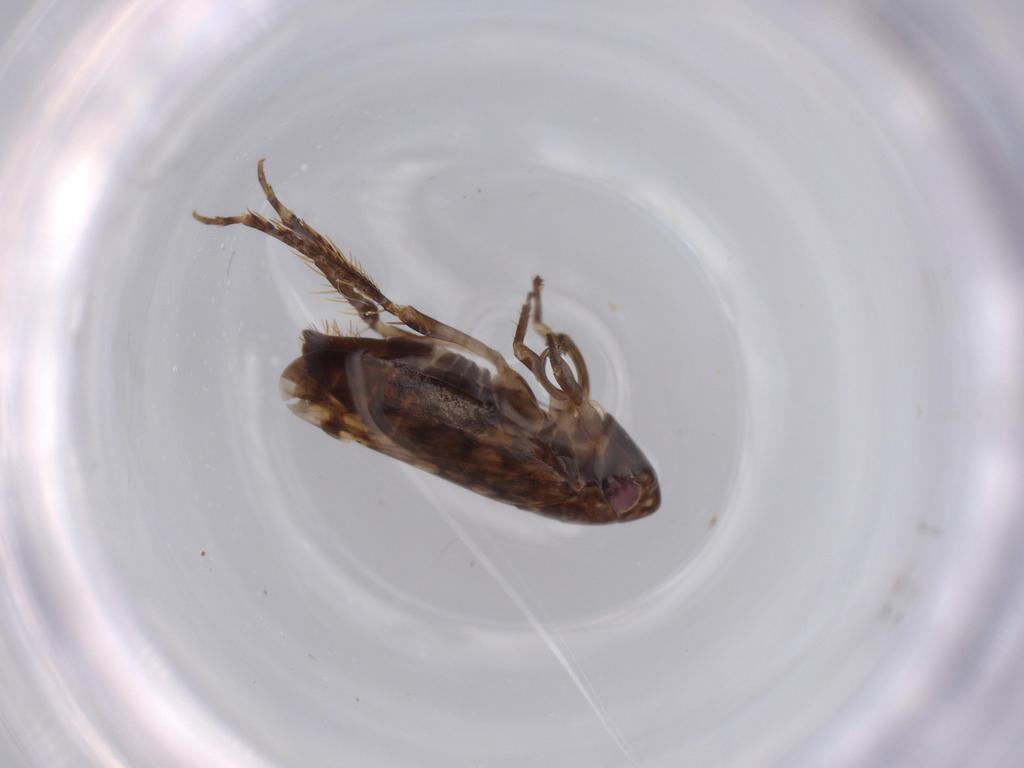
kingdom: Animalia
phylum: Arthropoda
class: Insecta
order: Hemiptera
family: Cicadellidae
